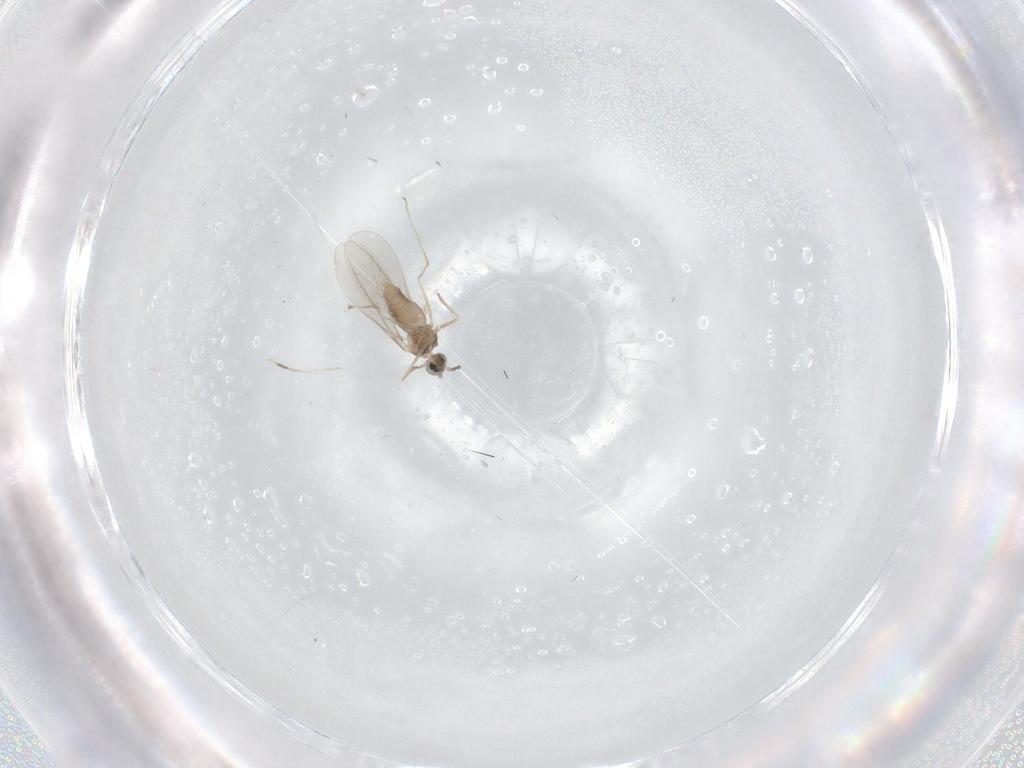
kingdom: Animalia
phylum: Arthropoda
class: Insecta
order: Diptera
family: Cecidomyiidae
